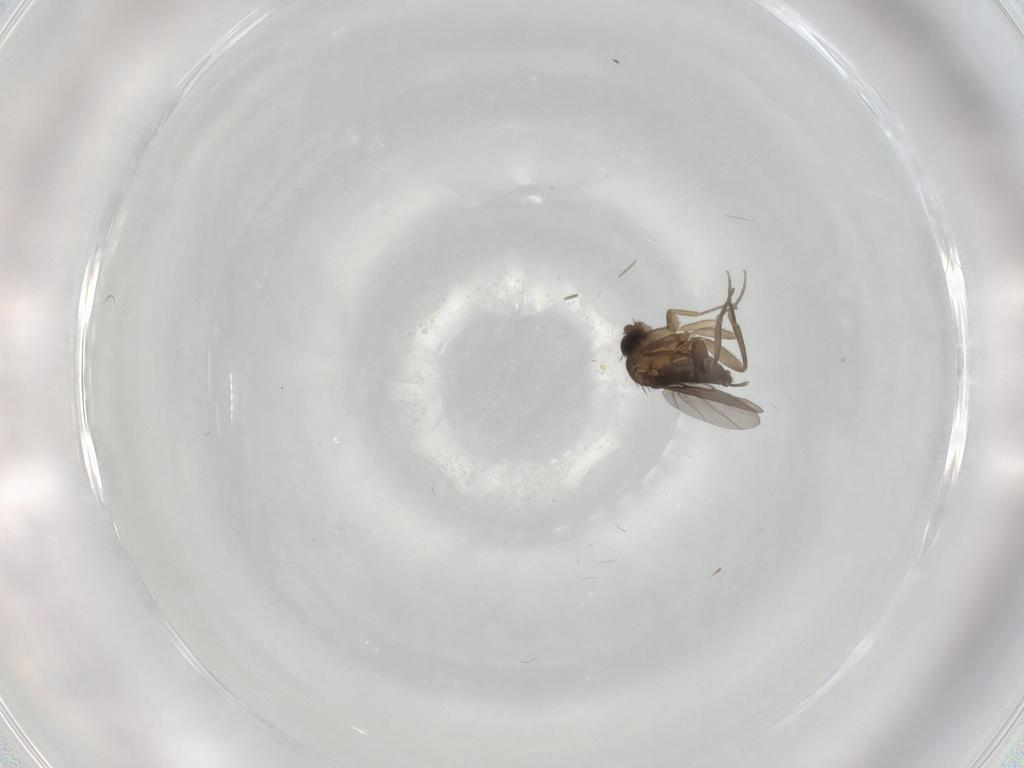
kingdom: Animalia
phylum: Arthropoda
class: Insecta
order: Diptera
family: Phoridae
